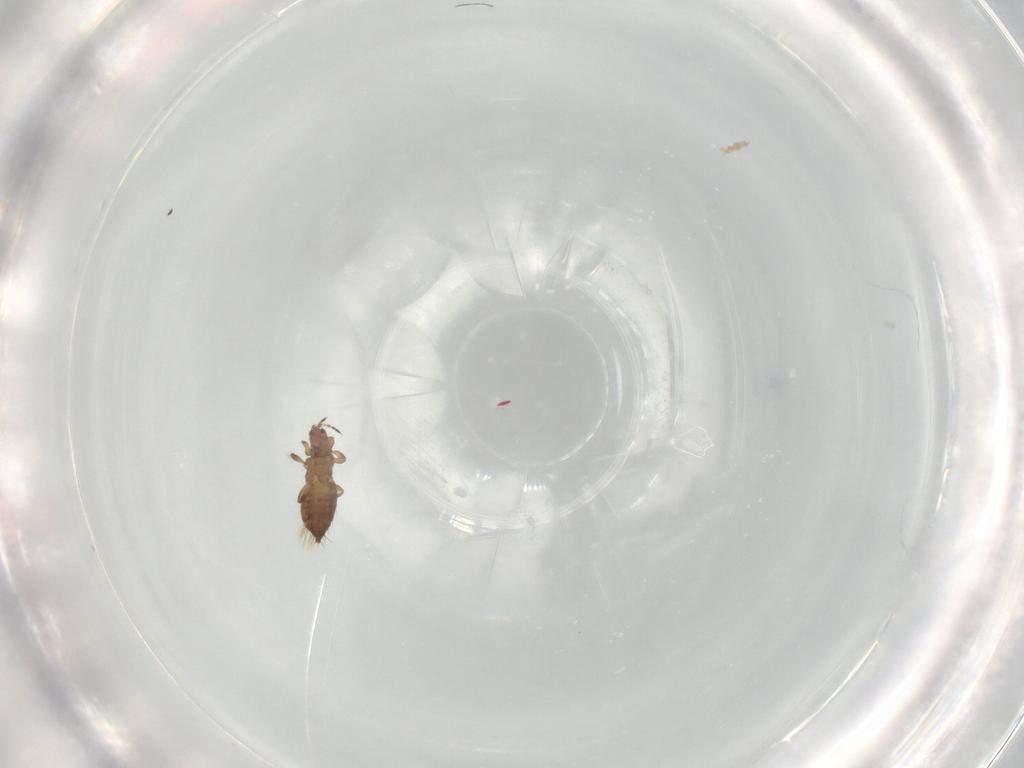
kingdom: Animalia
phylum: Arthropoda
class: Insecta
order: Thysanoptera
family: Thripidae
